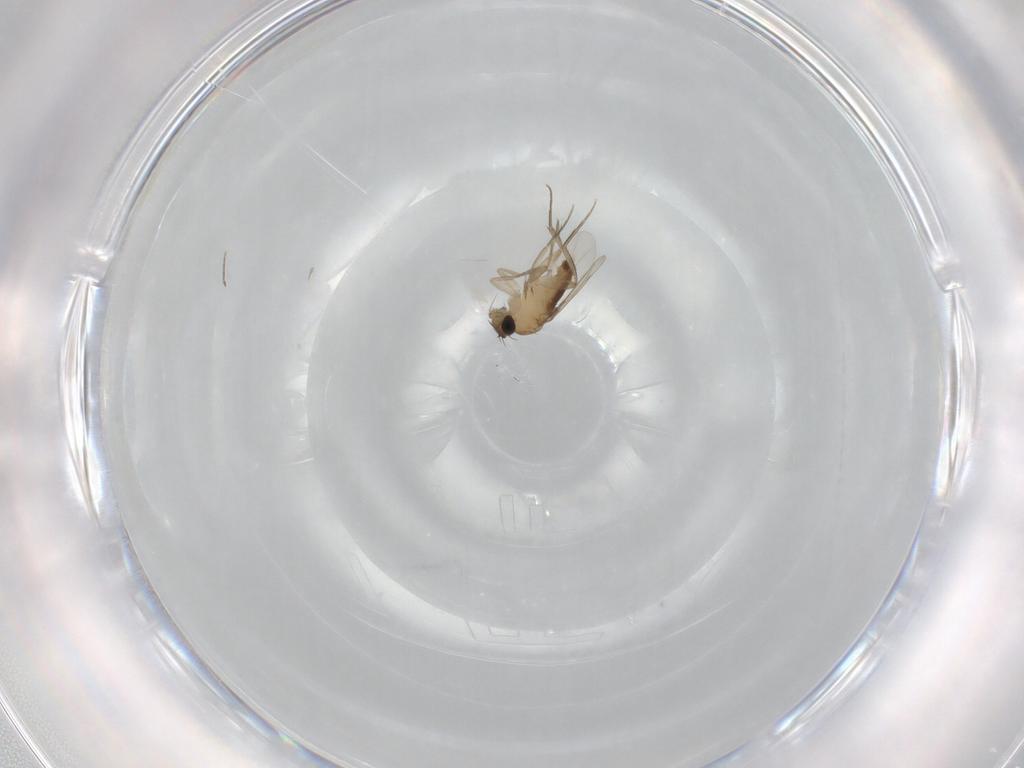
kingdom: Animalia
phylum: Arthropoda
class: Insecta
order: Diptera
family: Phoridae
